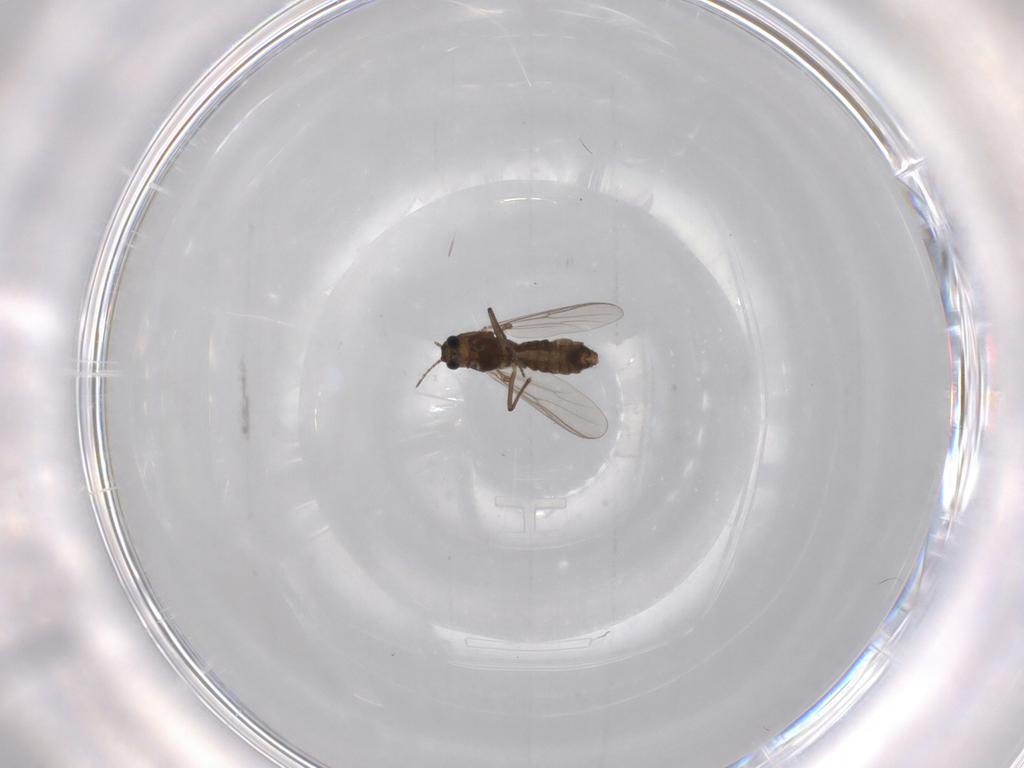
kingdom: Animalia
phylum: Arthropoda
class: Insecta
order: Diptera
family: Chironomidae
